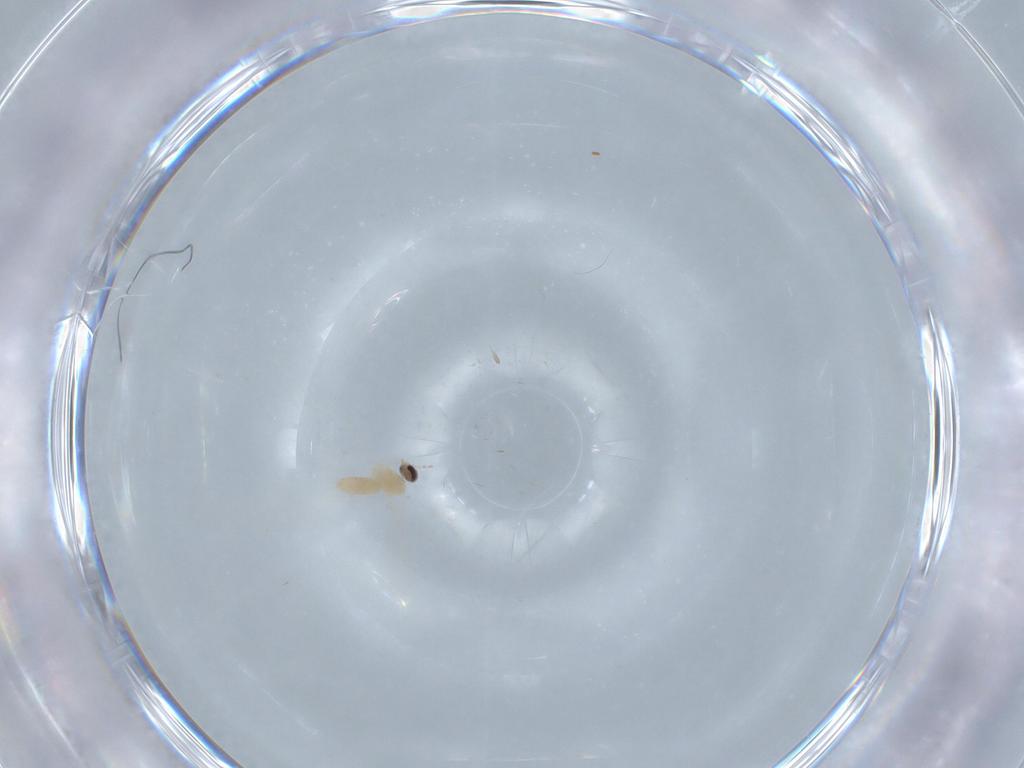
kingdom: Animalia
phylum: Arthropoda
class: Insecta
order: Diptera
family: Cecidomyiidae
